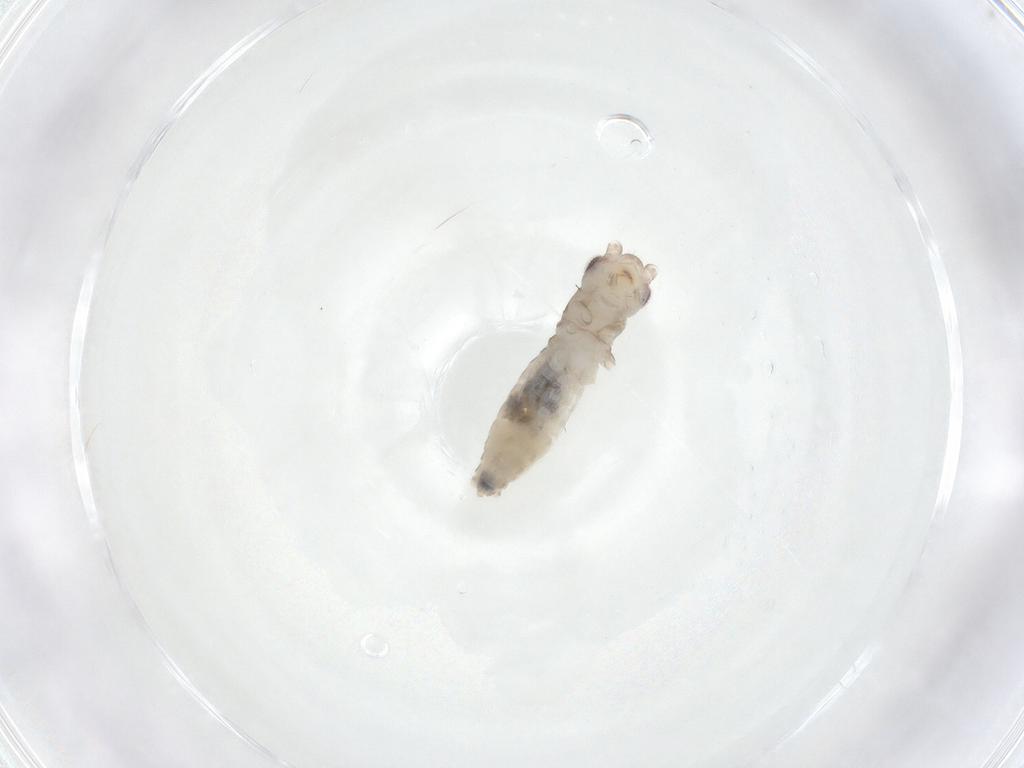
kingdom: Animalia
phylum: Arthropoda
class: Insecta
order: Orthoptera
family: Gryllidae
